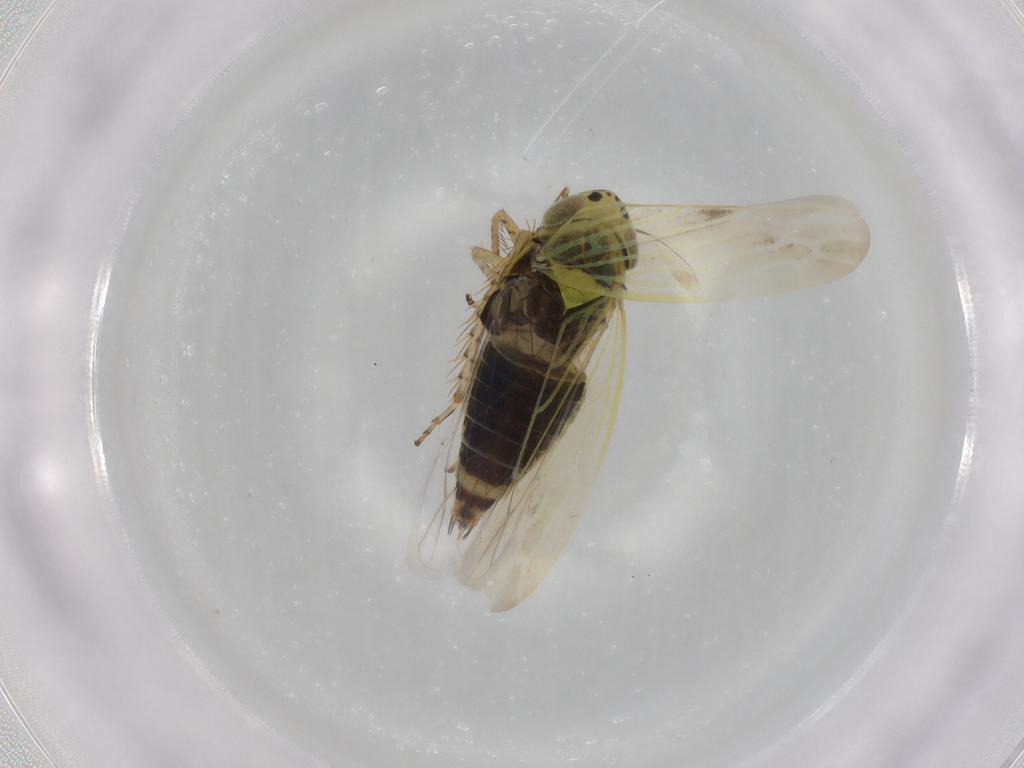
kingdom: Animalia
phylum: Arthropoda
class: Insecta
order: Hemiptera
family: Cicadellidae
